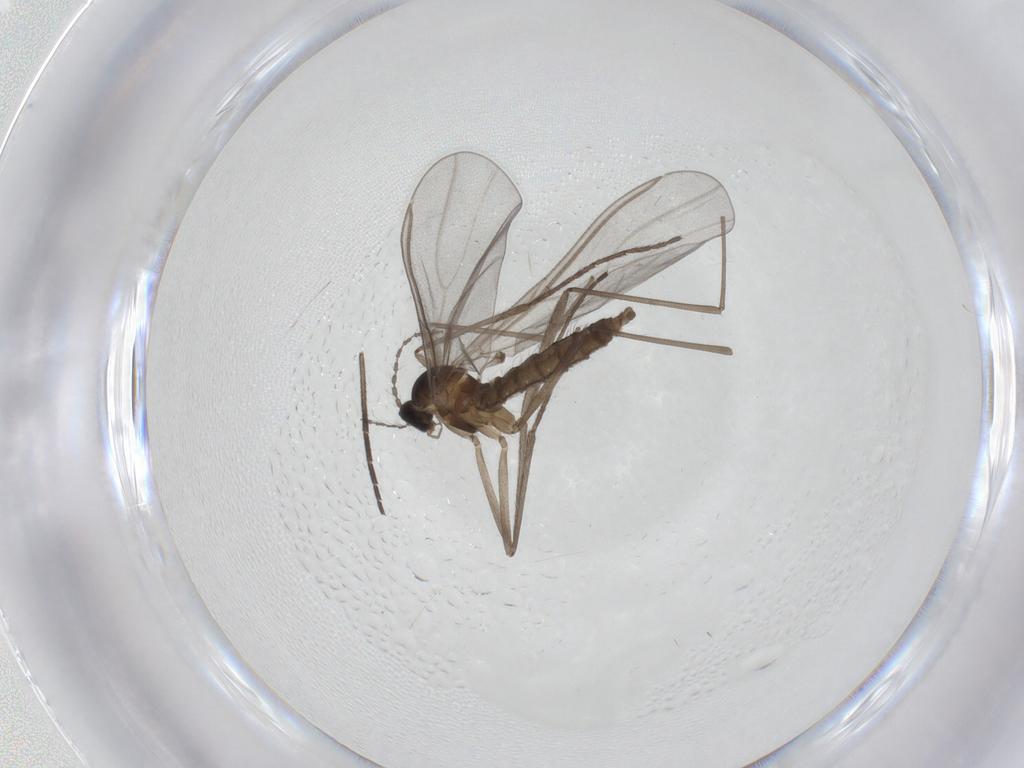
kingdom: Animalia
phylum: Arthropoda
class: Insecta
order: Diptera
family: Cecidomyiidae
